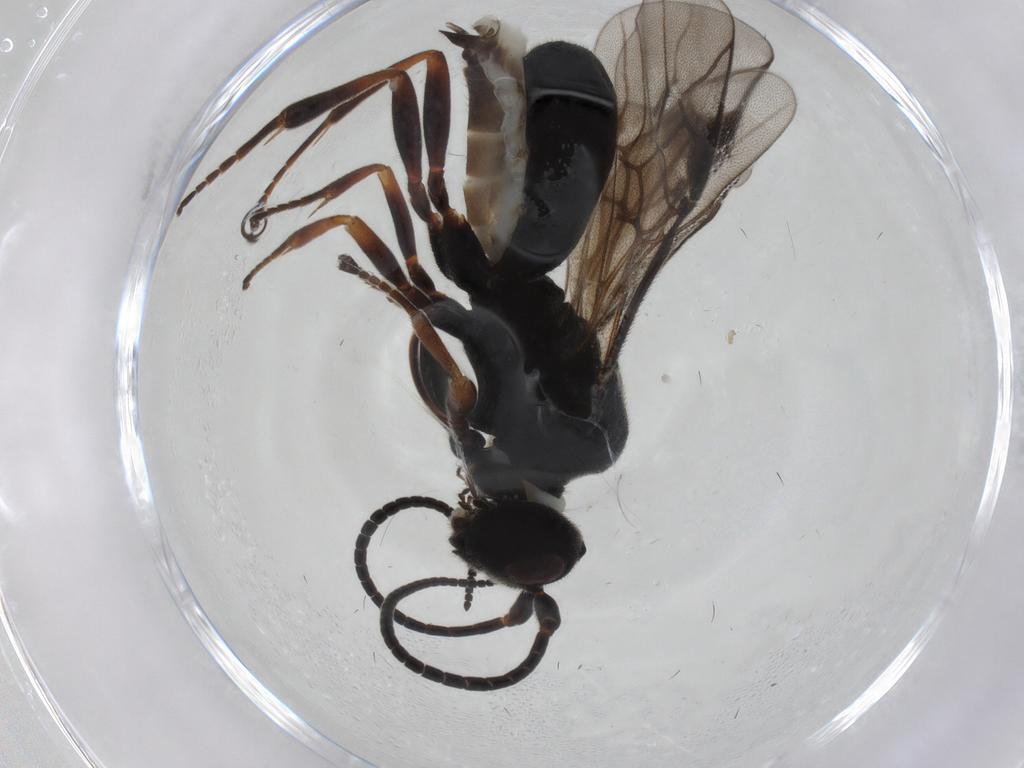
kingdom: Animalia
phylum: Arthropoda
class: Insecta
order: Hymenoptera
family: Braconidae
